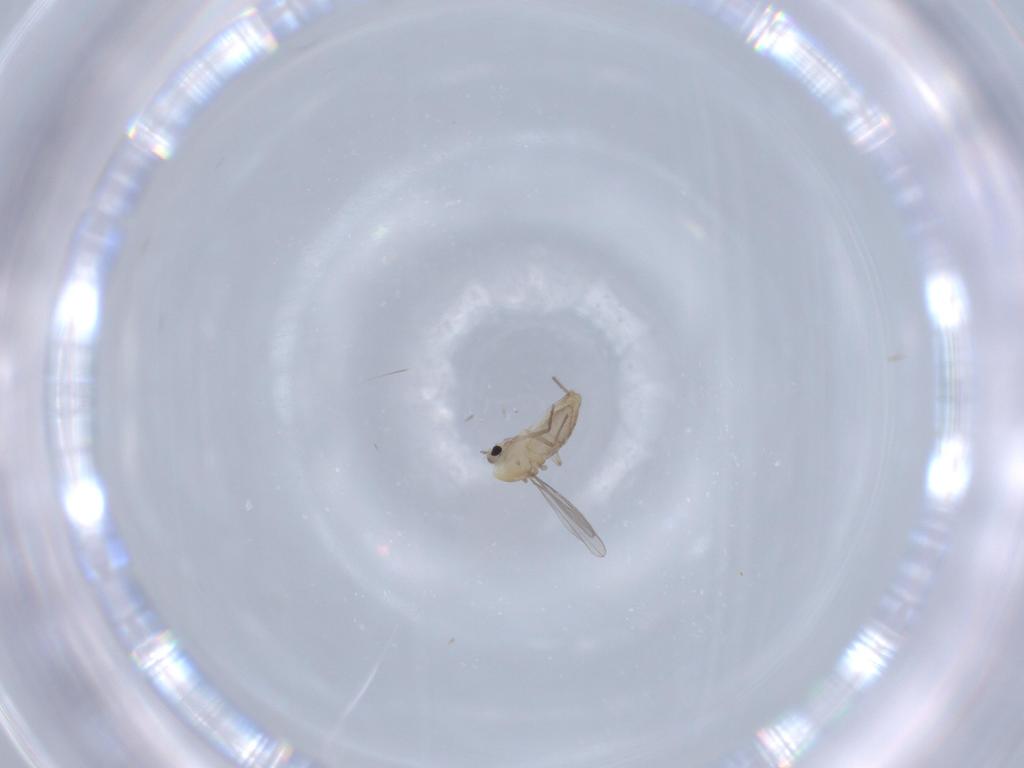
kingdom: Animalia
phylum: Arthropoda
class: Insecta
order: Diptera
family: Chironomidae
